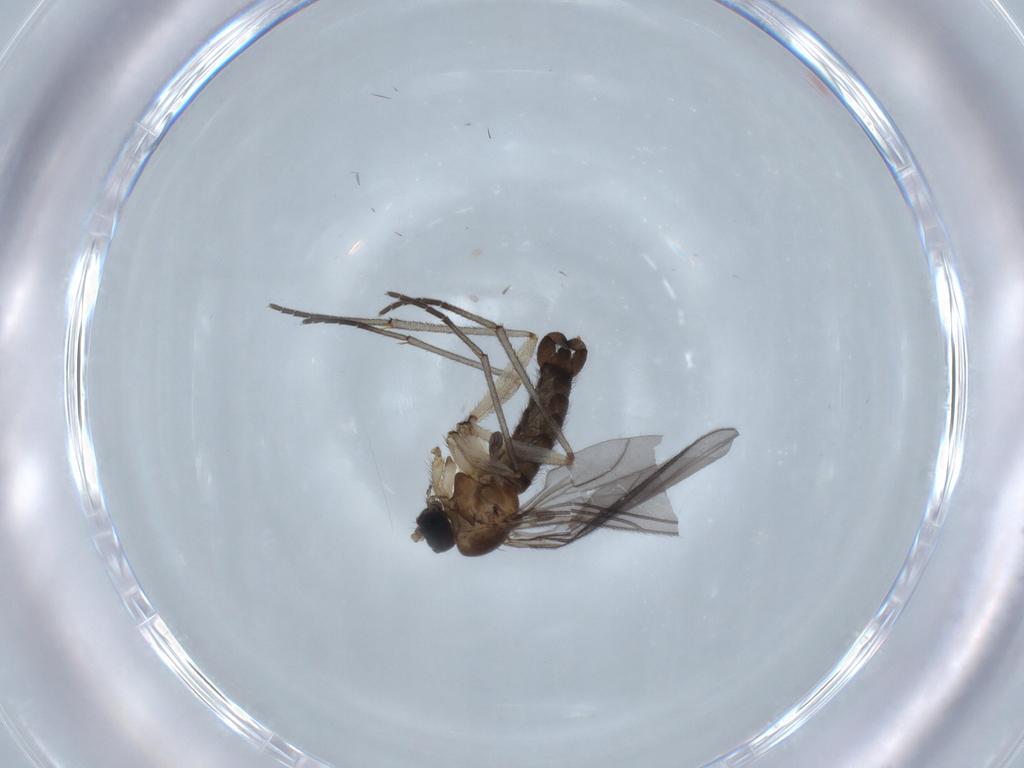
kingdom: Animalia
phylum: Arthropoda
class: Insecta
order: Diptera
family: Sciaridae
